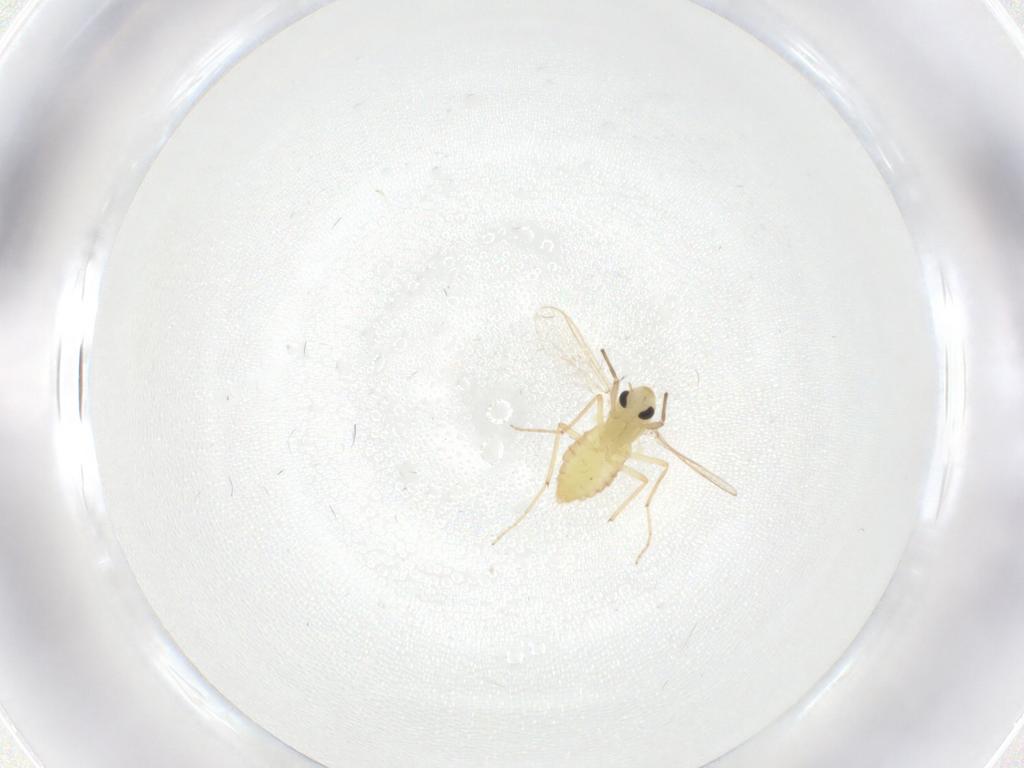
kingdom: Animalia
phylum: Arthropoda
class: Insecta
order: Diptera
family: Chironomidae
